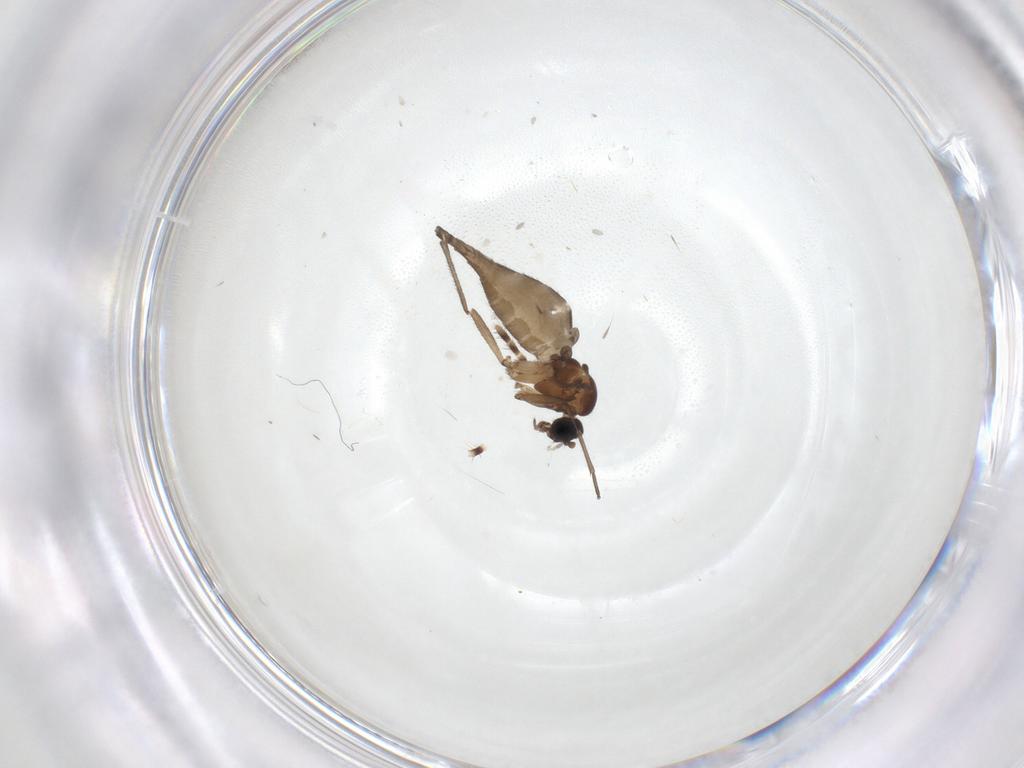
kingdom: Animalia
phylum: Arthropoda
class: Insecta
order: Diptera
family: Sciaridae
